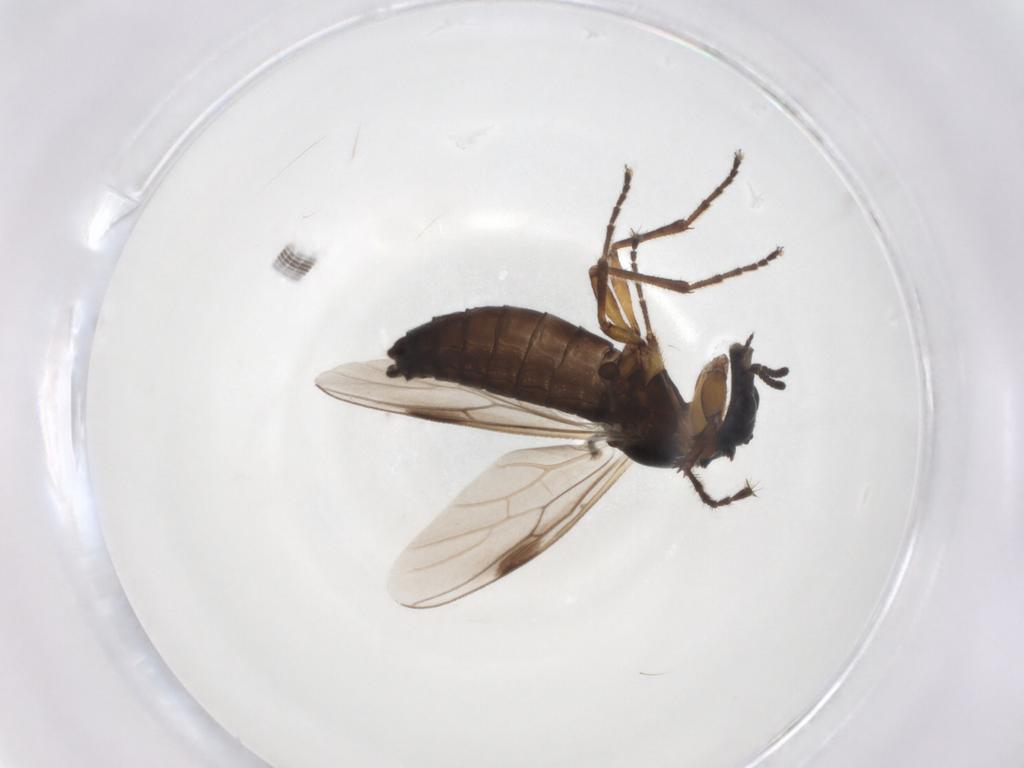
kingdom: Animalia
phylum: Arthropoda
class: Insecta
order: Diptera
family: Bibionidae
